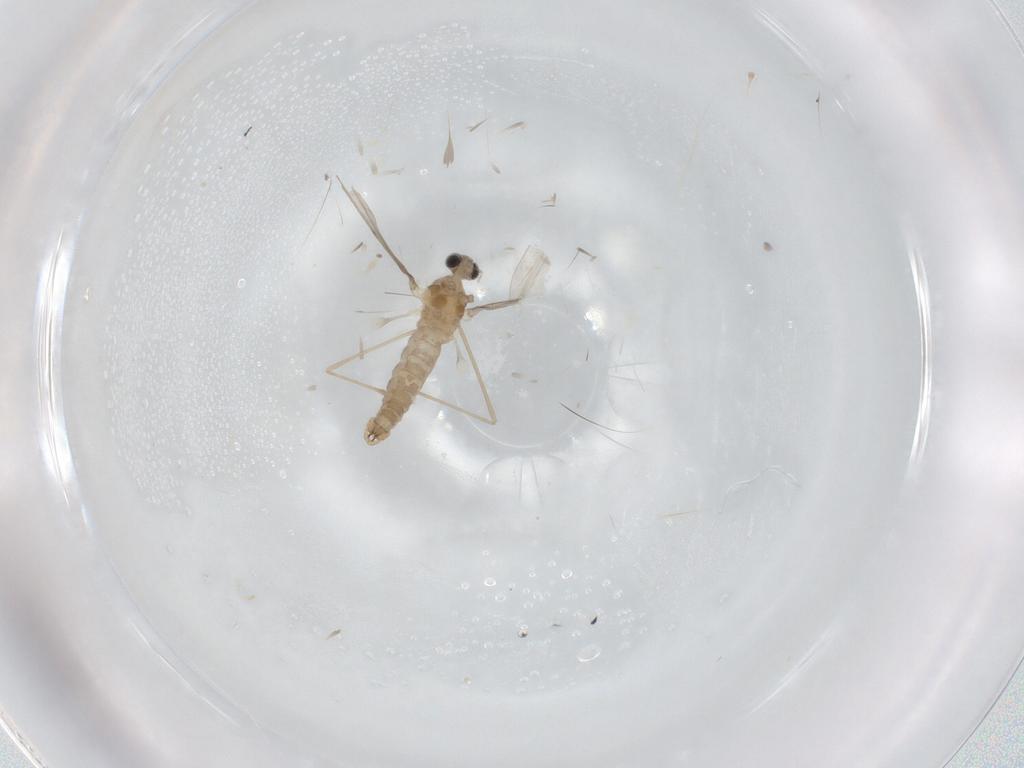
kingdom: Animalia
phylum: Arthropoda
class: Insecta
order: Diptera
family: Cecidomyiidae
